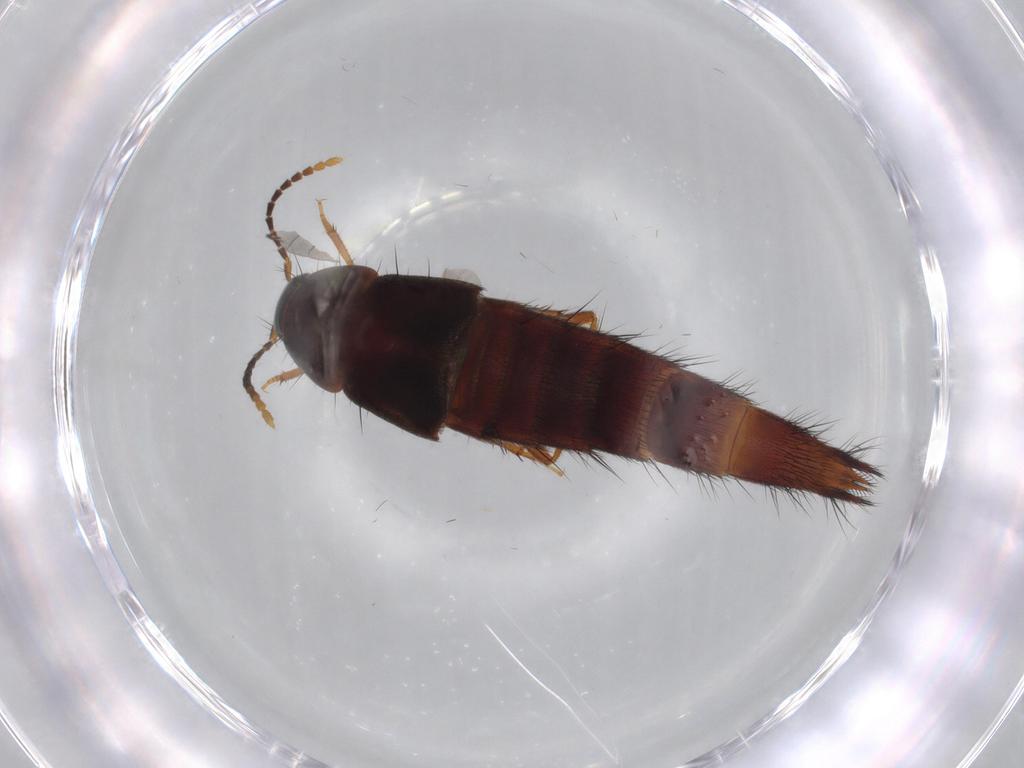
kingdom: Animalia
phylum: Arthropoda
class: Insecta
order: Coleoptera
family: Staphylinidae
